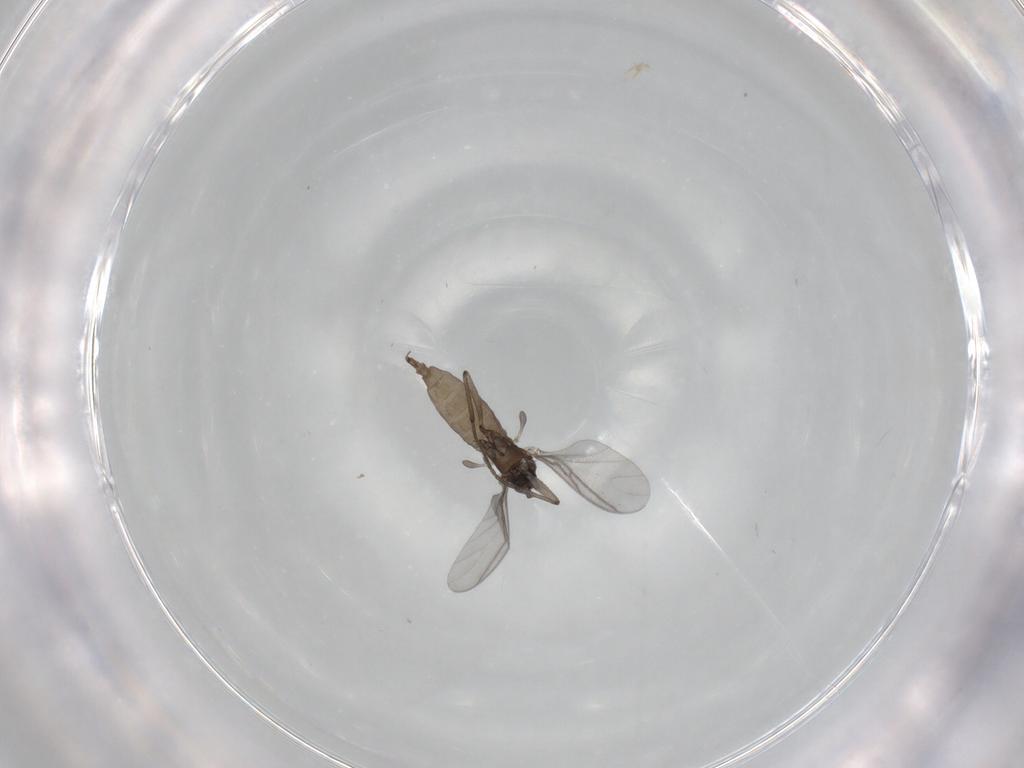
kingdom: Animalia
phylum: Arthropoda
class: Insecta
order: Diptera
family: Sciaridae
